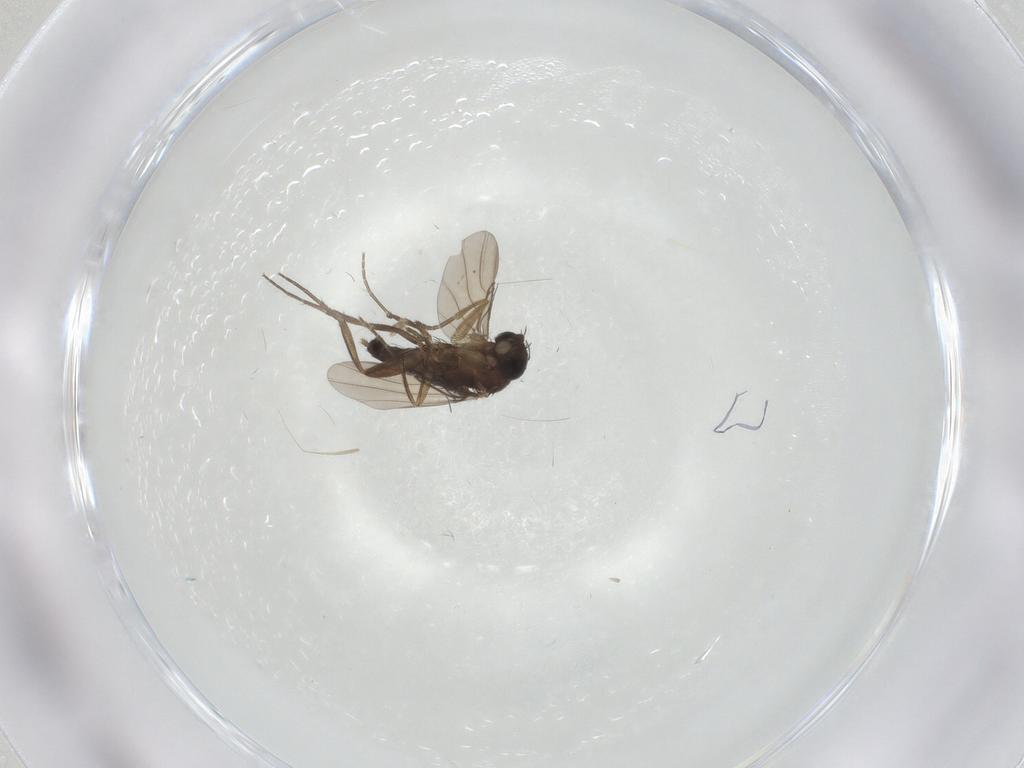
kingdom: Animalia
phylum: Arthropoda
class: Insecta
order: Diptera
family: Phoridae
